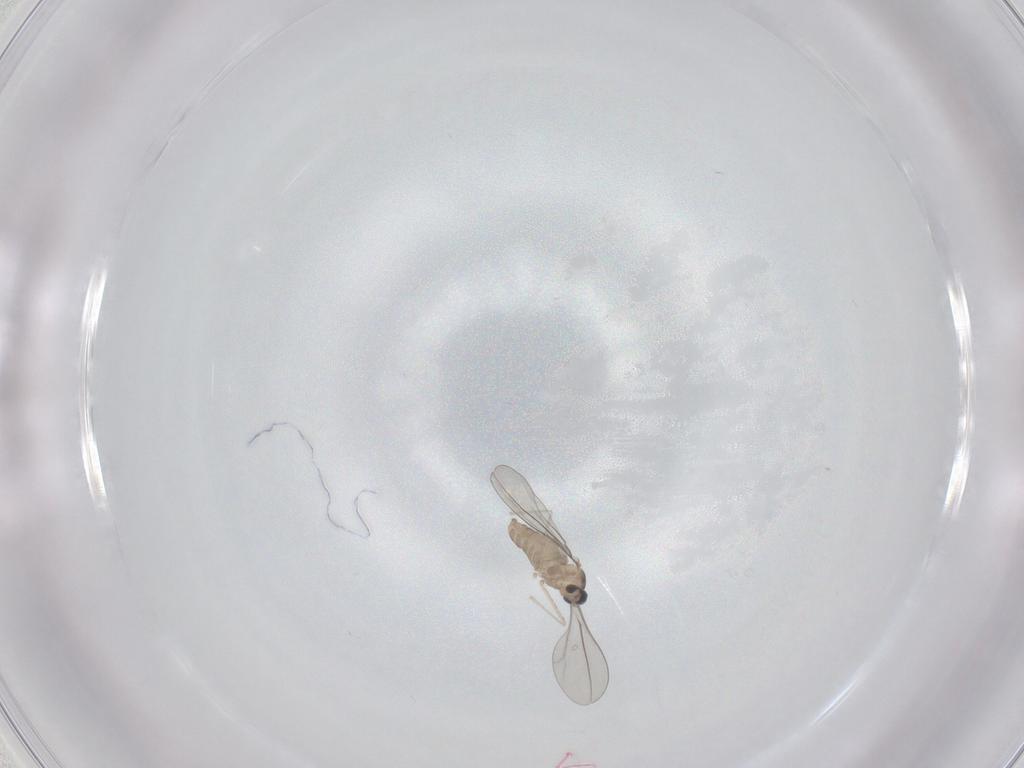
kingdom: Animalia
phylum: Arthropoda
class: Insecta
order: Diptera
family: Cecidomyiidae
